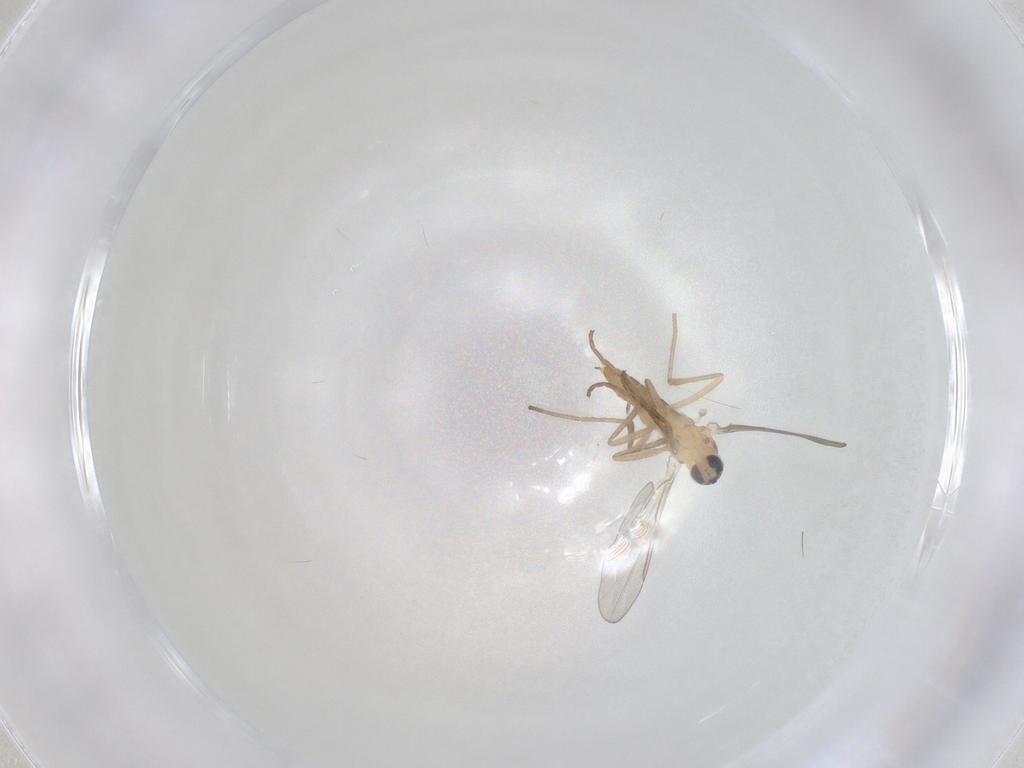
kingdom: Animalia
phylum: Arthropoda
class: Insecta
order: Diptera
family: Cecidomyiidae
